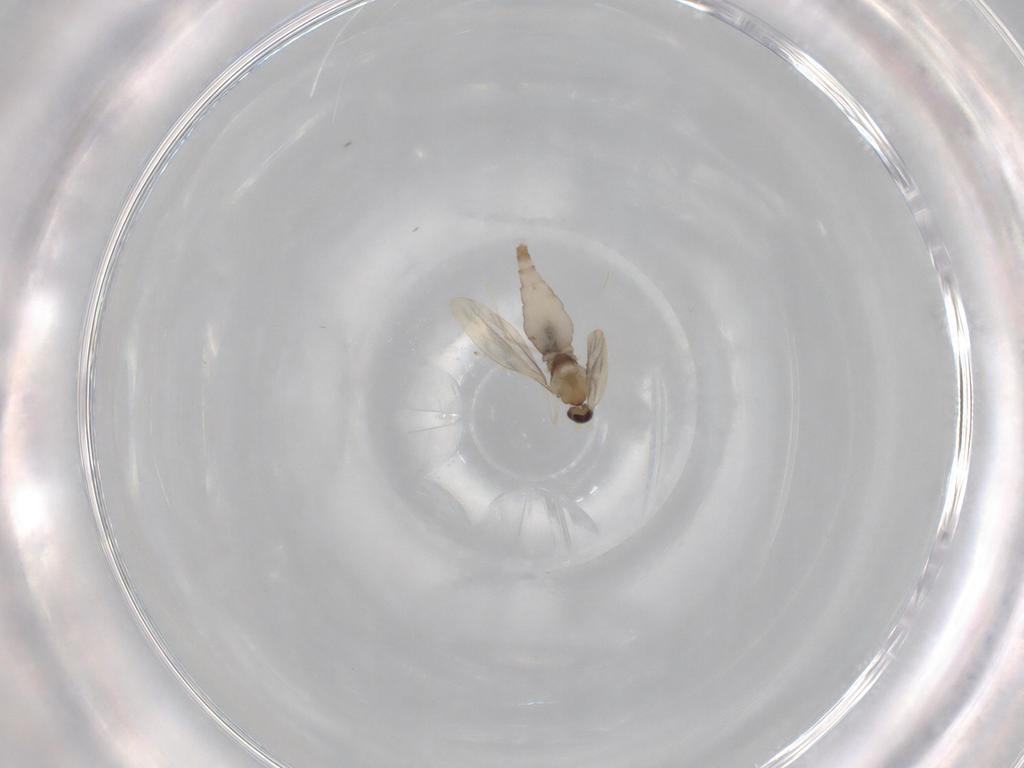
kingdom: Animalia
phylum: Arthropoda
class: Insecta
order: Diptera
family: Cecidomyiidae
